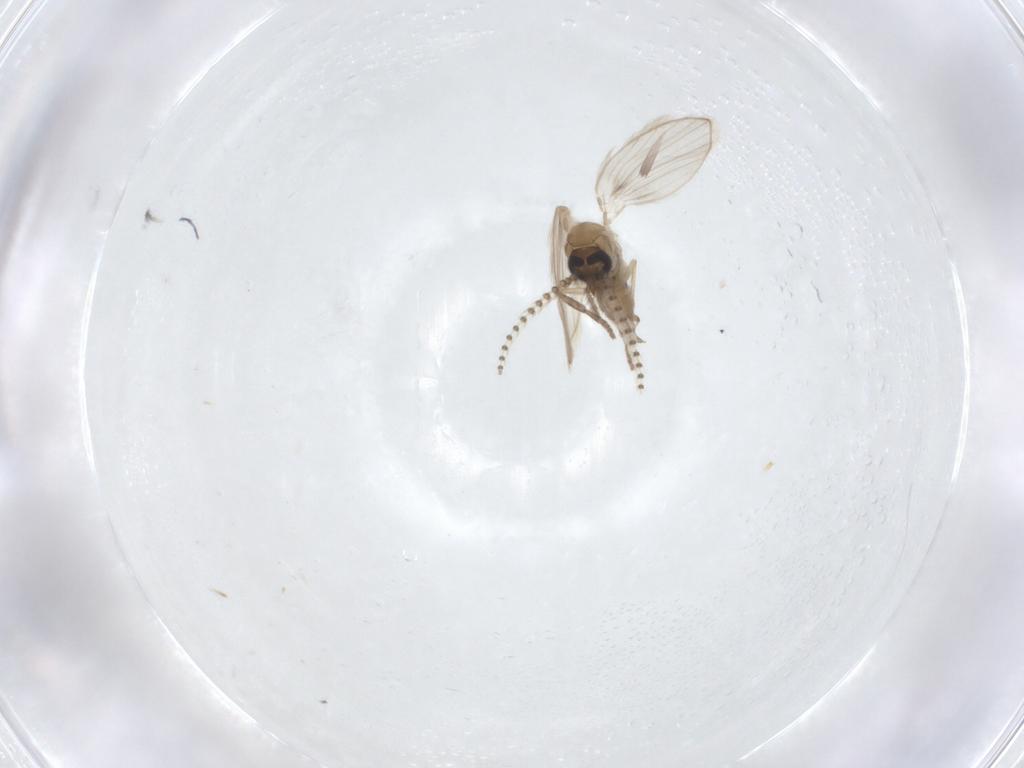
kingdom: Animalia
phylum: Arthropoda
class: Insecta
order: Diptera
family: Psychodidae
